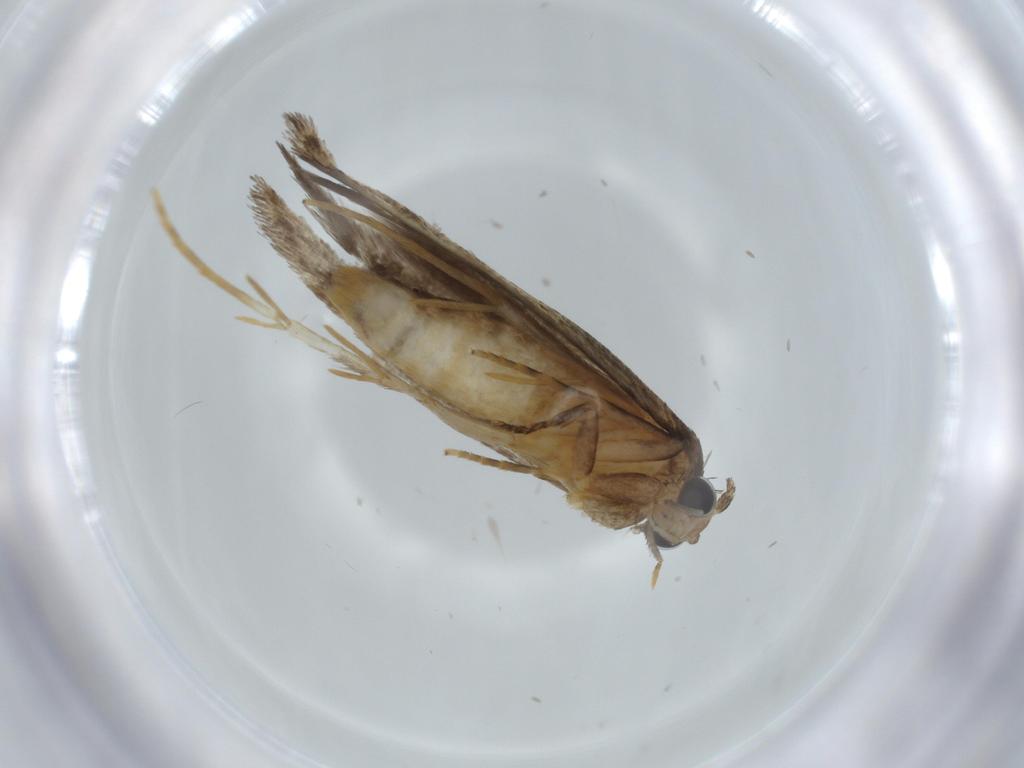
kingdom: Animalia
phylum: Arthropoda
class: Insecta
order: Lepidoptera
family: Tineidae
